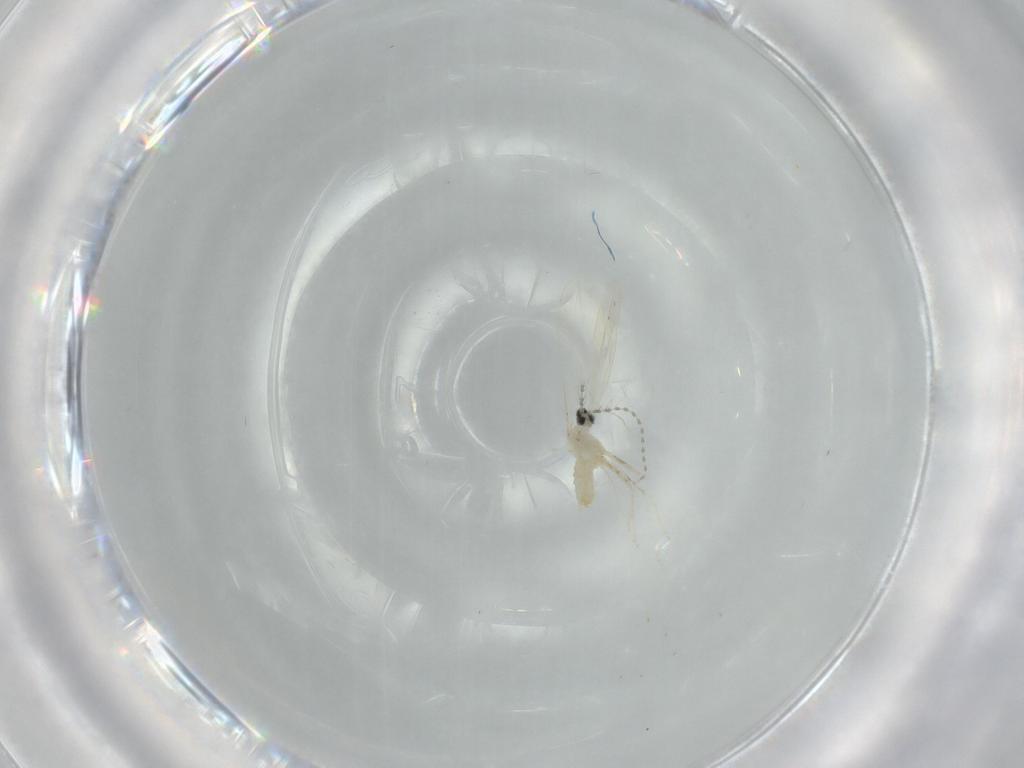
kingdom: Animalia
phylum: Arthropoda
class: Insecta
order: Diptera
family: Cecidomyiidae
